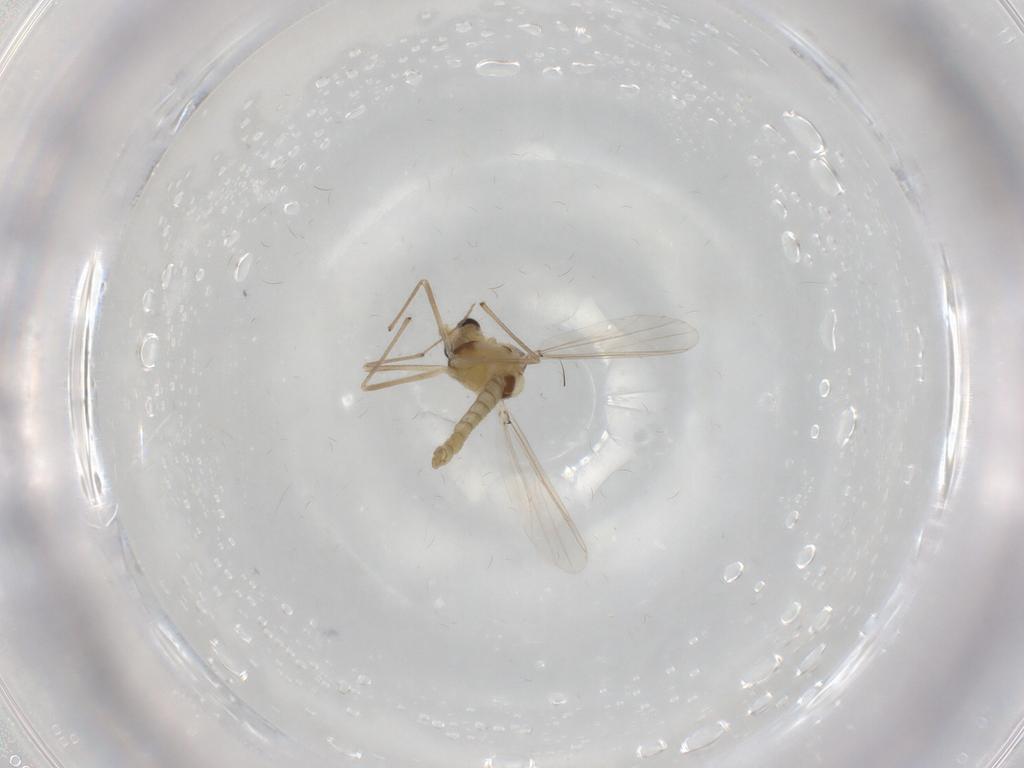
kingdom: Animalia
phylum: Arthropoda
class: Insecta
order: Diptera
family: Chironomidae
